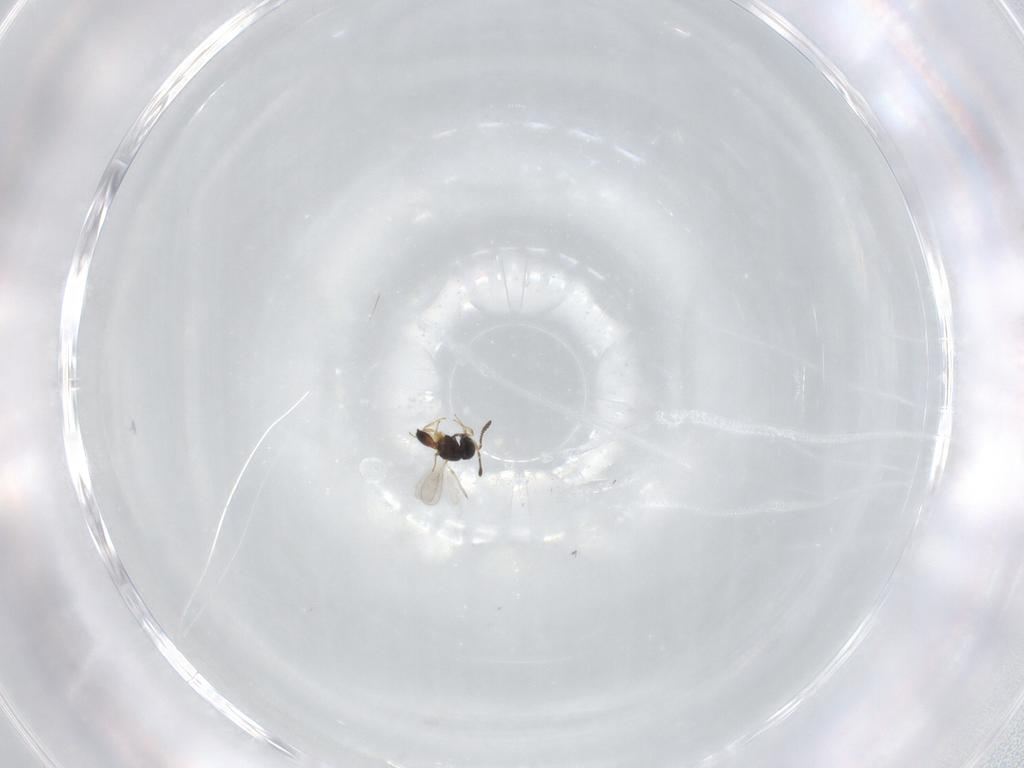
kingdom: Animalia
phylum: Arthropoda
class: Insecta
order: Hymenoptera
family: Scelionidae
